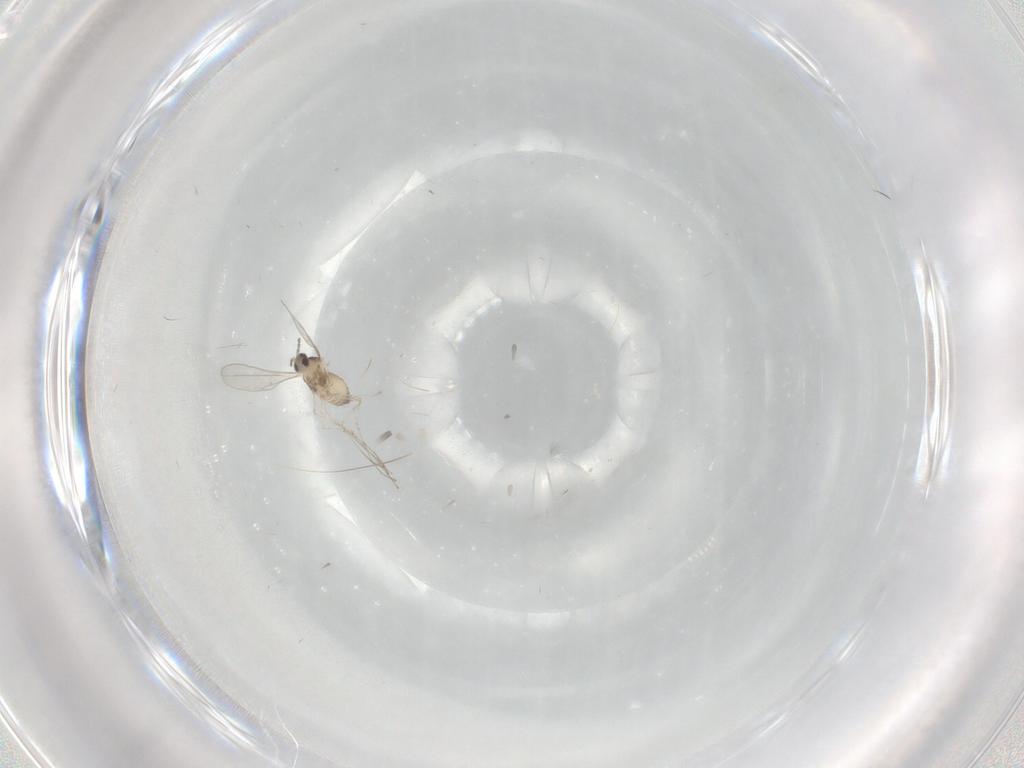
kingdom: Animalia
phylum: Arthropoda
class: Insecta
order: Diptera
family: Cecidomyiidae
